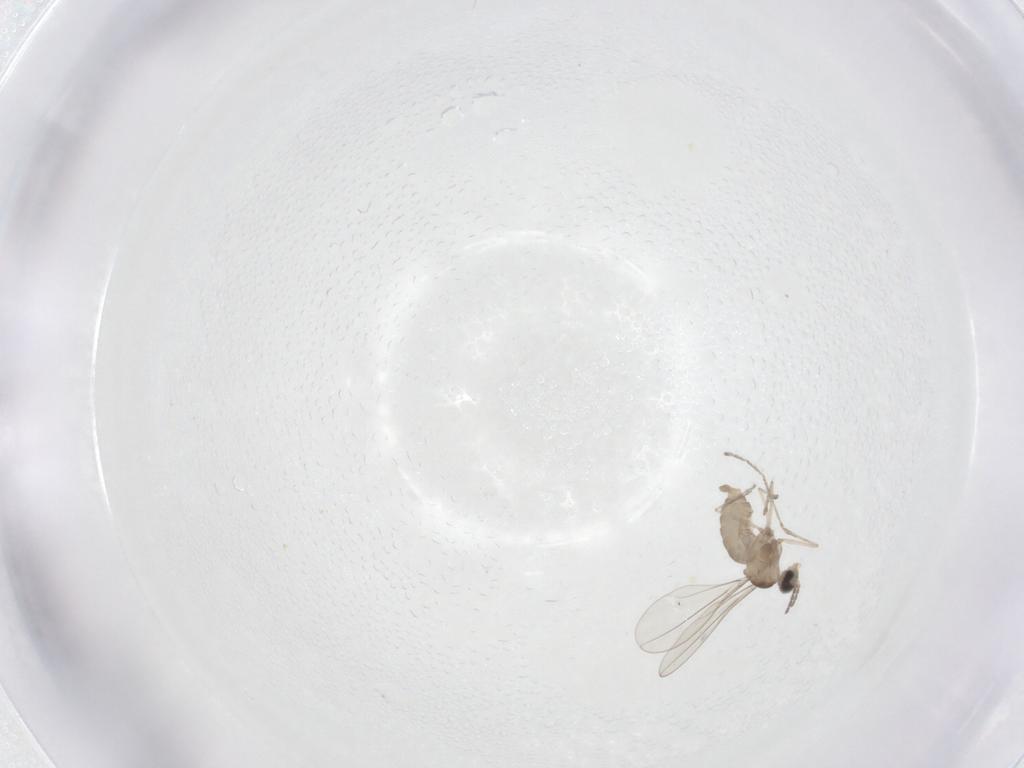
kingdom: Animalia
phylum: Arthropoda
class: Insecta
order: Diptera
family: Cecidomyiidae
